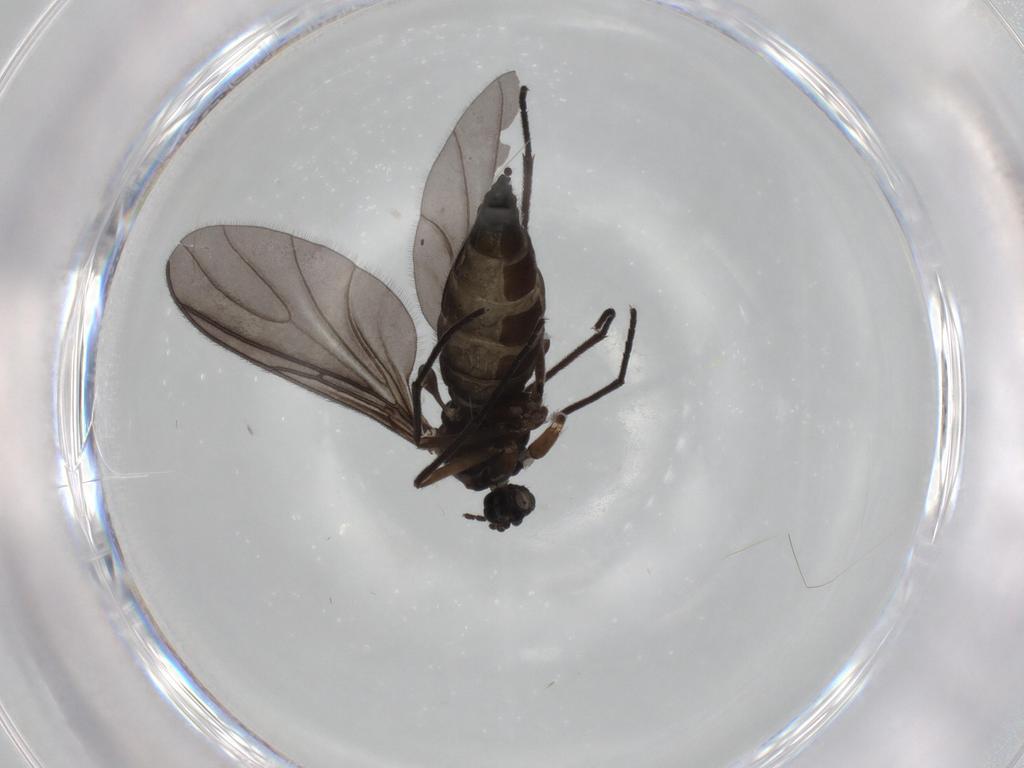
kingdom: Animalia
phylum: Arthropoda
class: Insecta
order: Diptera
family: Sciaridae
